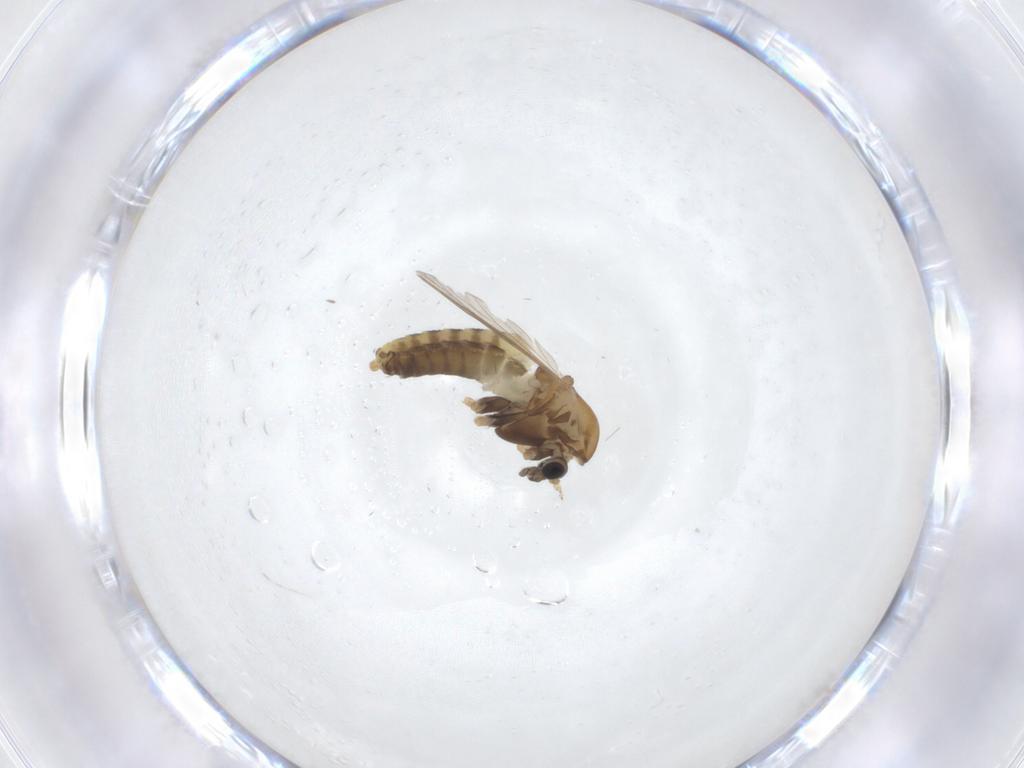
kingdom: Animalia
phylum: Arthropoda
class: Insecta
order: Diptera
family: Chironomidae
